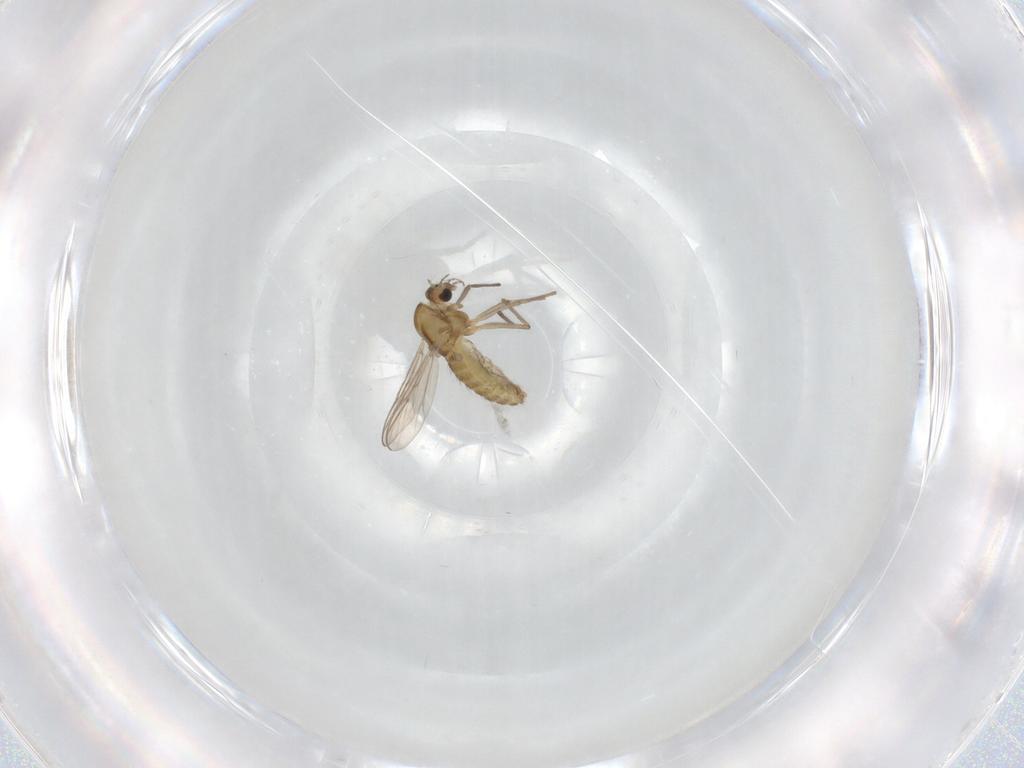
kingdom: Animalia
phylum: Arthropoda
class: Insecta
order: Diptera
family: Chironomidae
